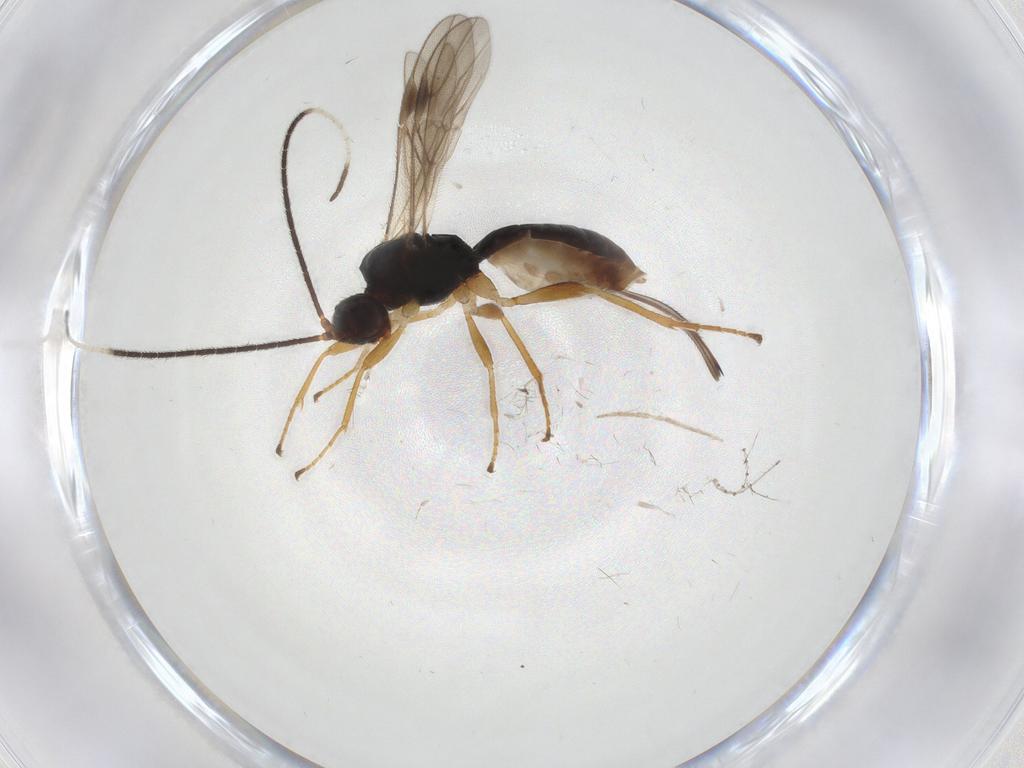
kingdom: Animalia
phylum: Arthropoda
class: Insecta
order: Hymenoptera
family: Braconidae
